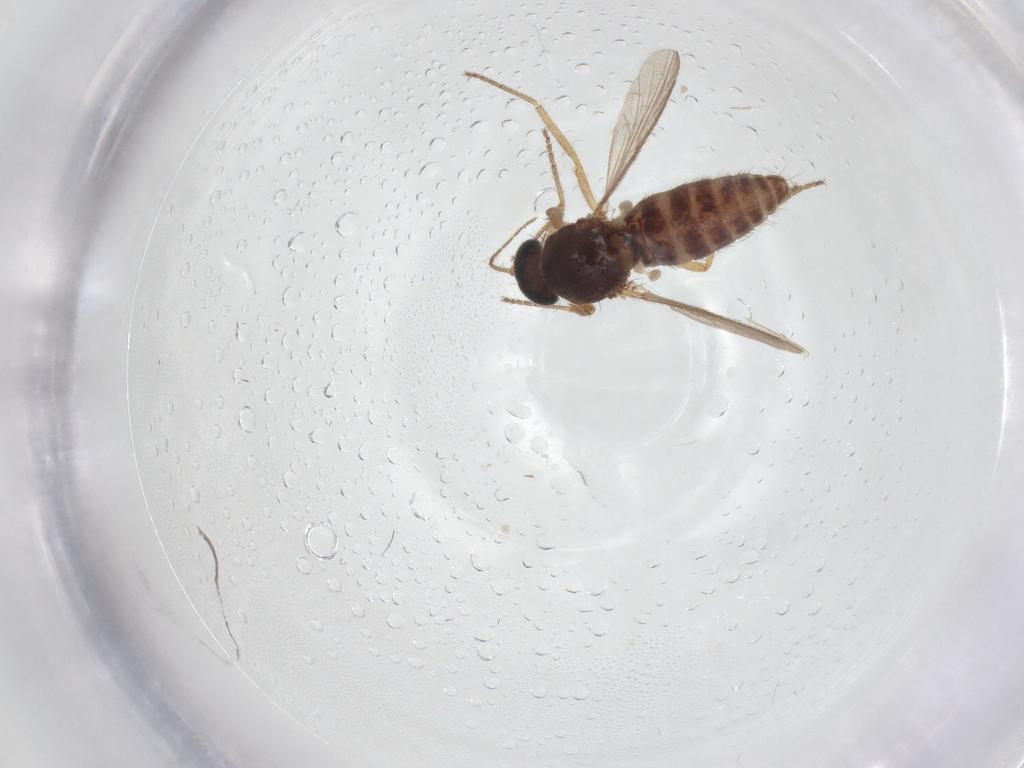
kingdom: Animalia
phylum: Arthropoda
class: Insecta
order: Diptera
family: Ceratopogonidae
